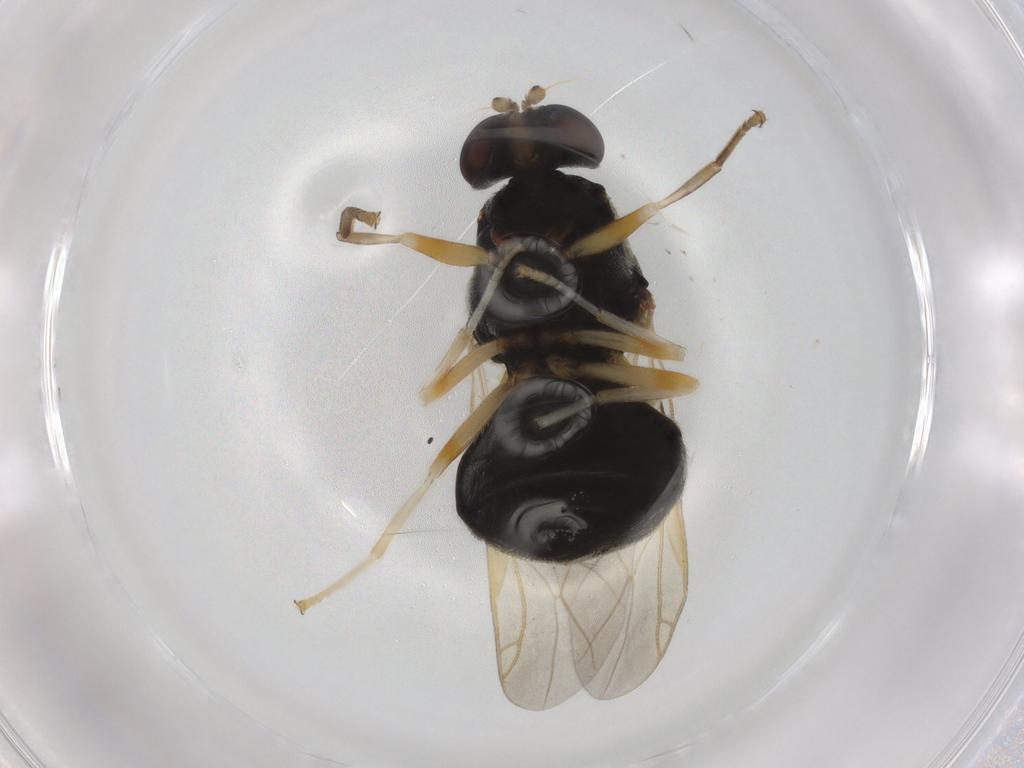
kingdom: Animalia
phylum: Arthropoda
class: Insecta
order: Diptera
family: Stratiomyidae
